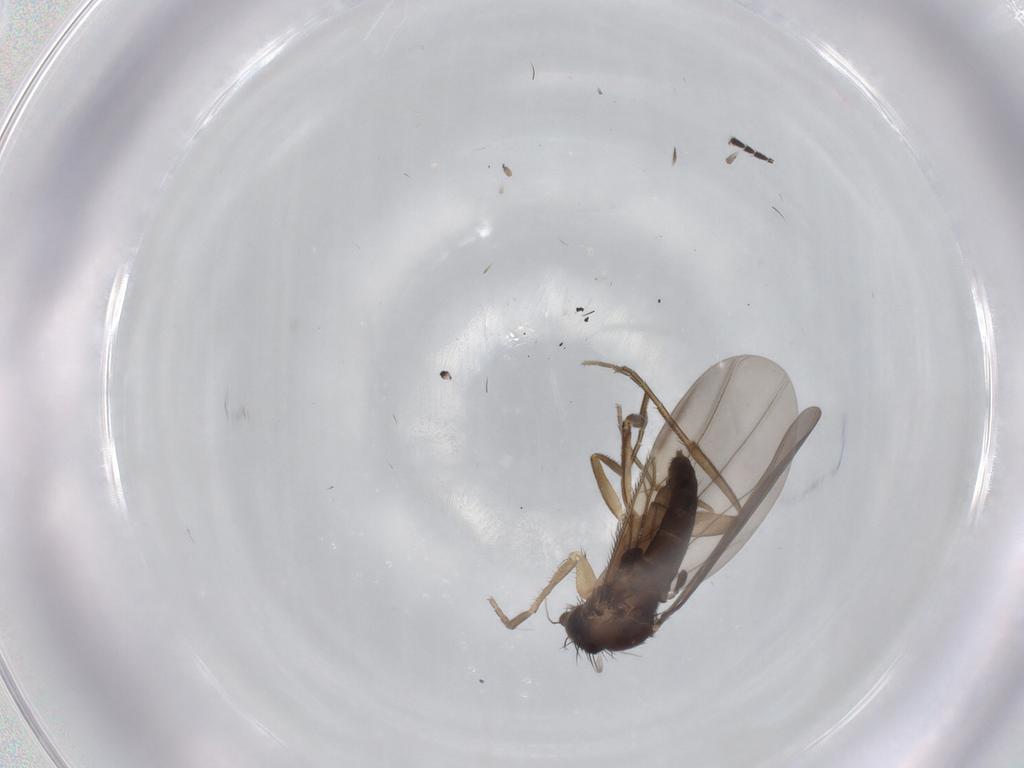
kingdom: Animalia
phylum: Arthropoda
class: Insecta
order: Diptera
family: Phoridae
